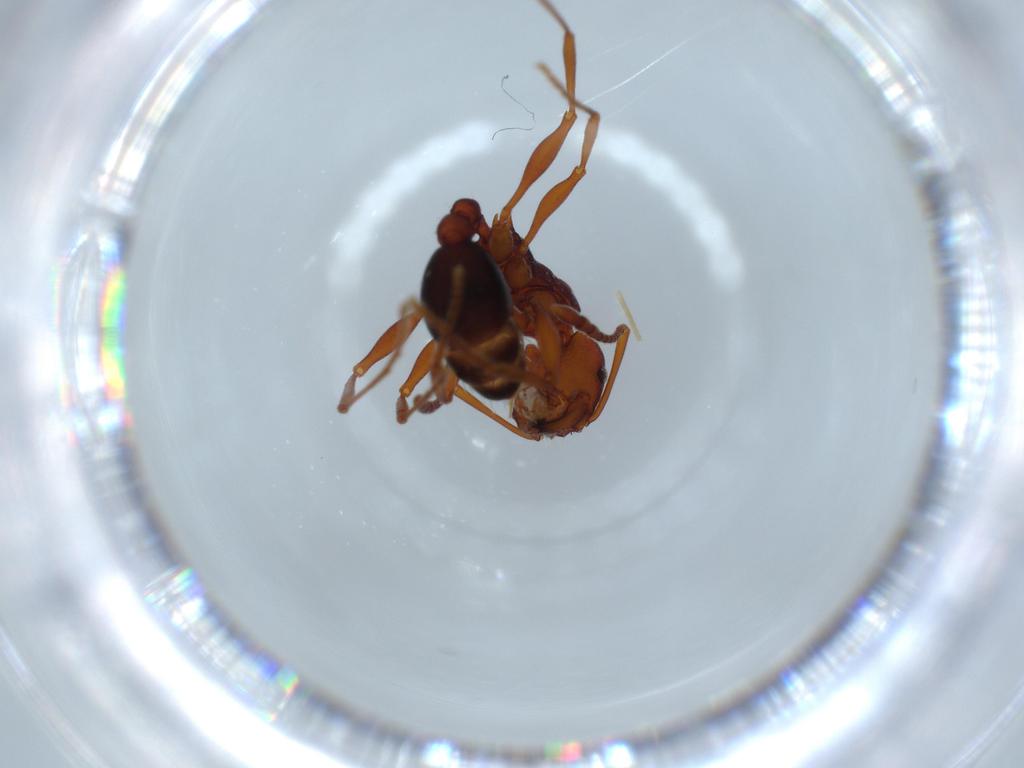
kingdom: Animalia
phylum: Arthropoda
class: Insecta
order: Hymenoptera
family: Formicidae
